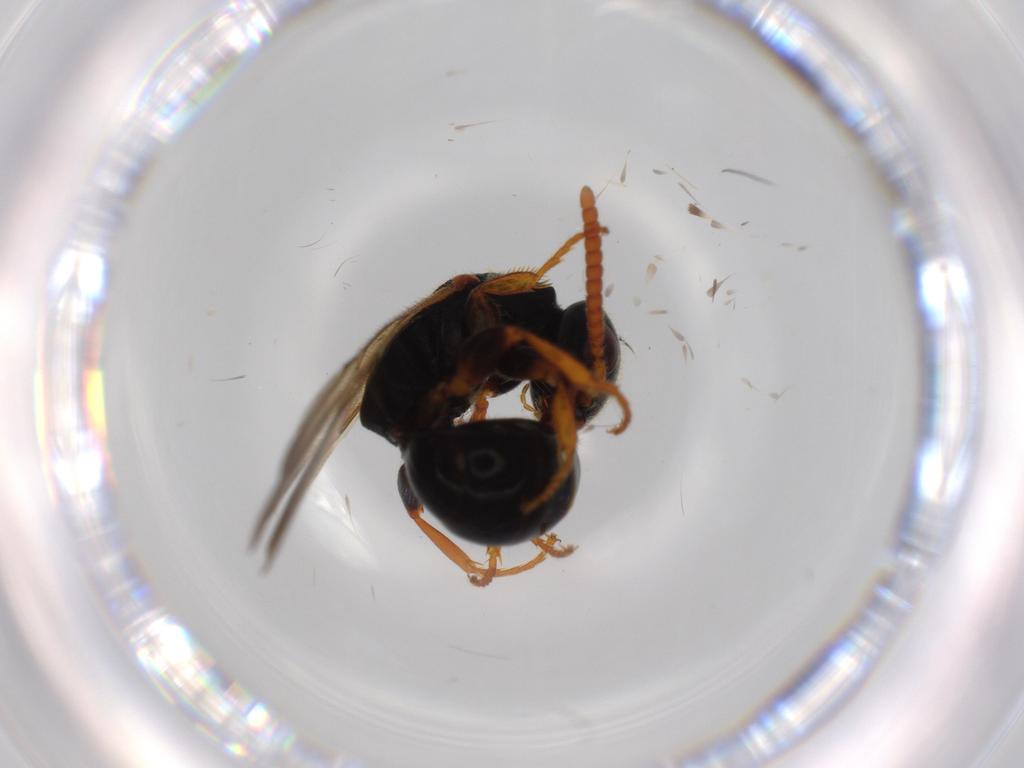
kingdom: Animalia
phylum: Arthropoda
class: Insecta
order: Hymenoptera
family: Bethylidae
